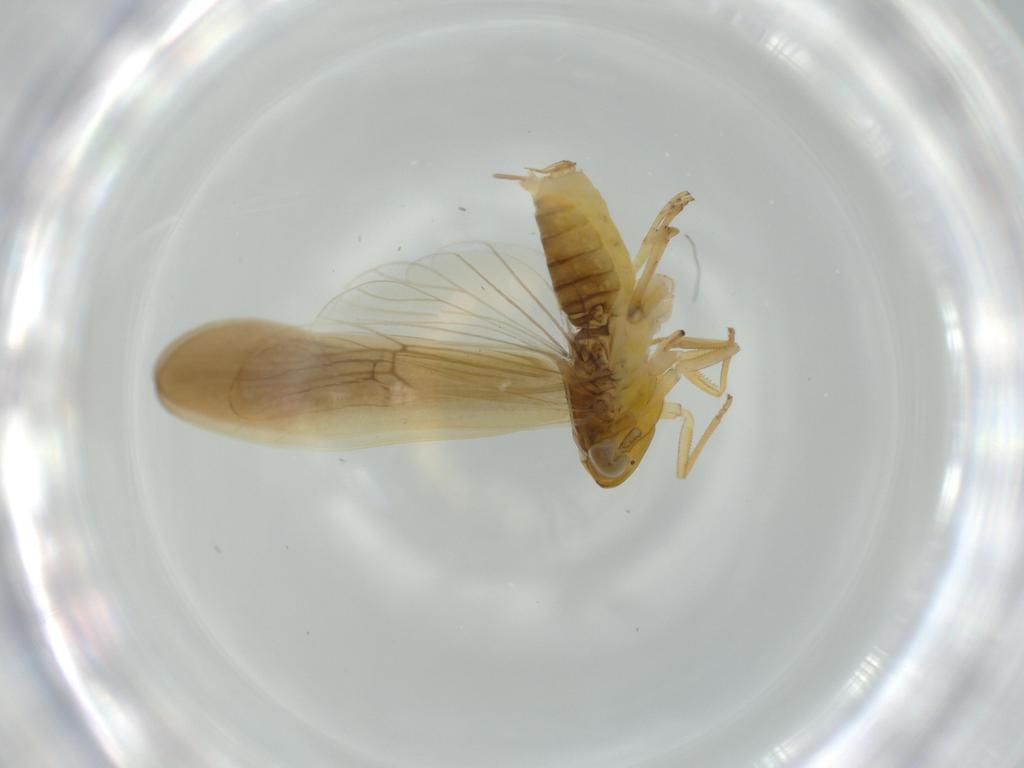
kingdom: Animalia
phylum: Arthropoda
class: Insecta
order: Hemiptera
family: Delphacidae
